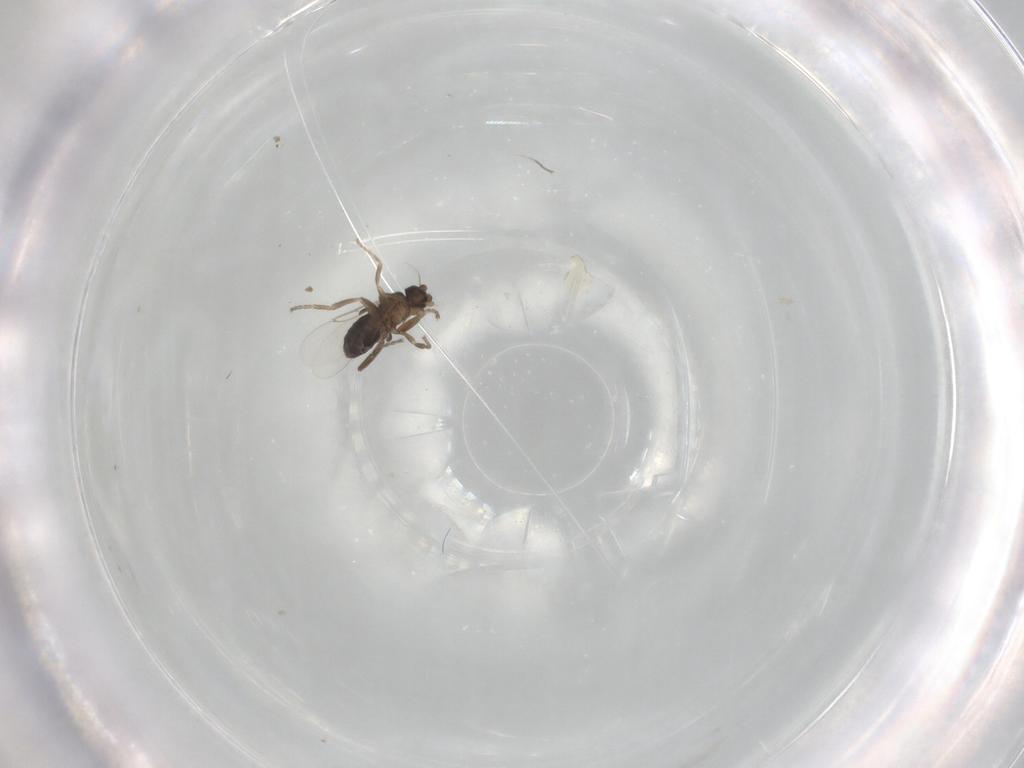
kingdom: Animalia
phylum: Arthropoda
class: Insecta
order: Diptera
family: Phoridae
